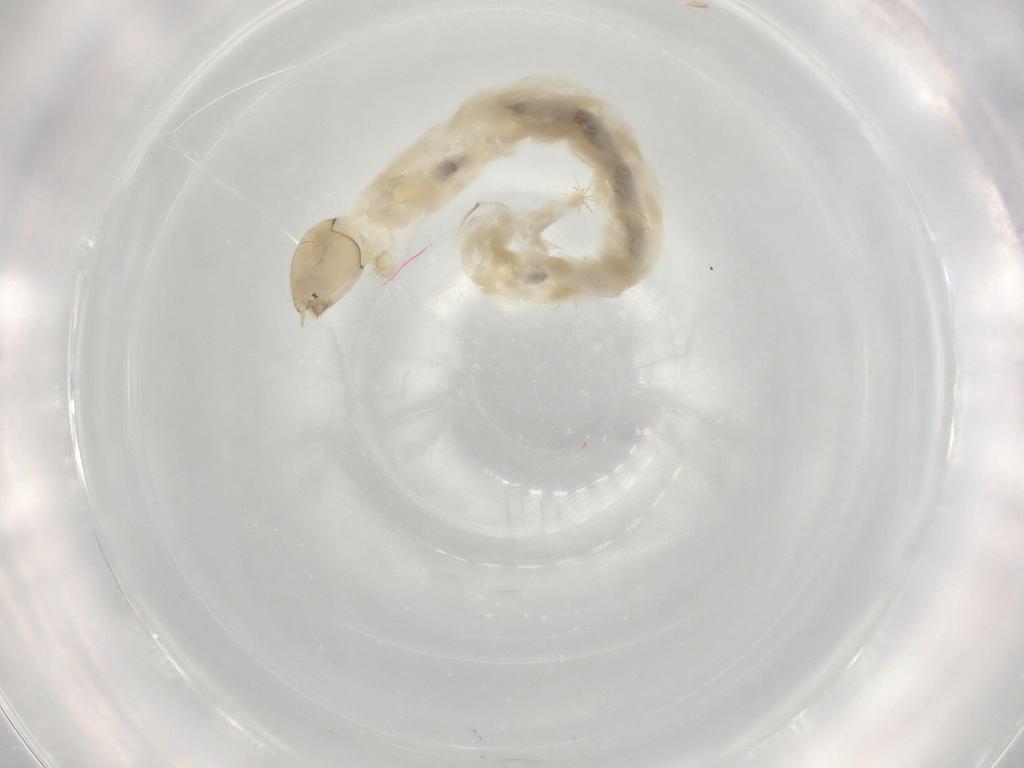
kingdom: Animalia
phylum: Arthropoda
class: Insecta
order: Diptera
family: Chironomidae
